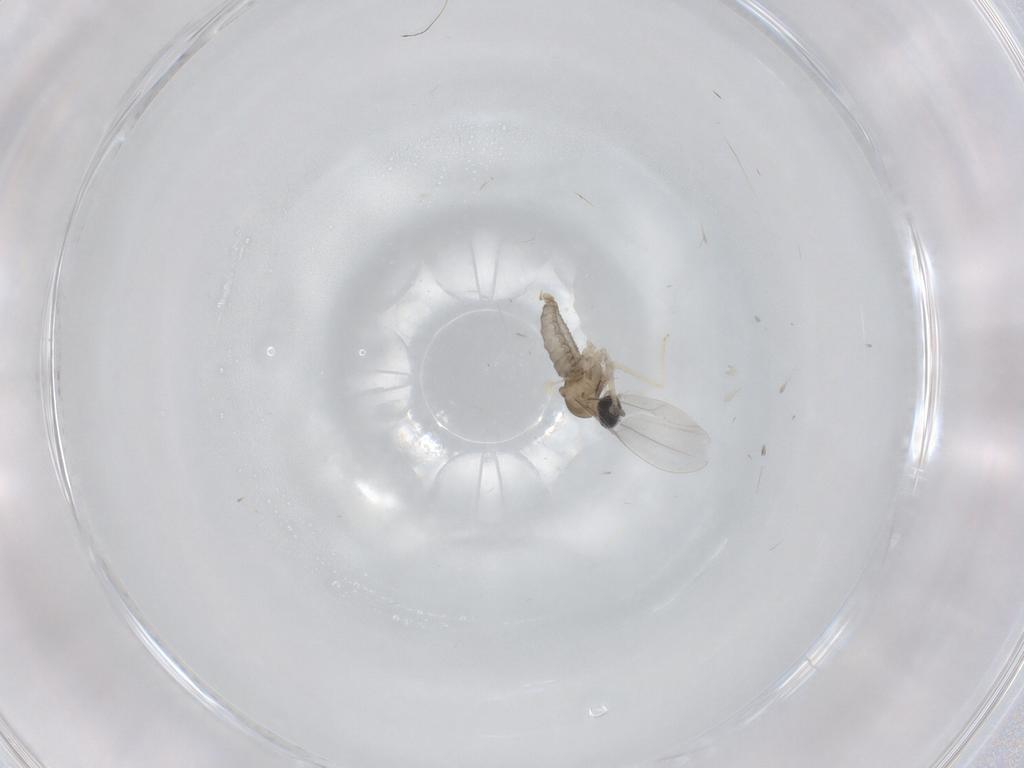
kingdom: Animalia
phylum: Arthropoda
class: Insecta
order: Diptera
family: Cecidomyiidae
